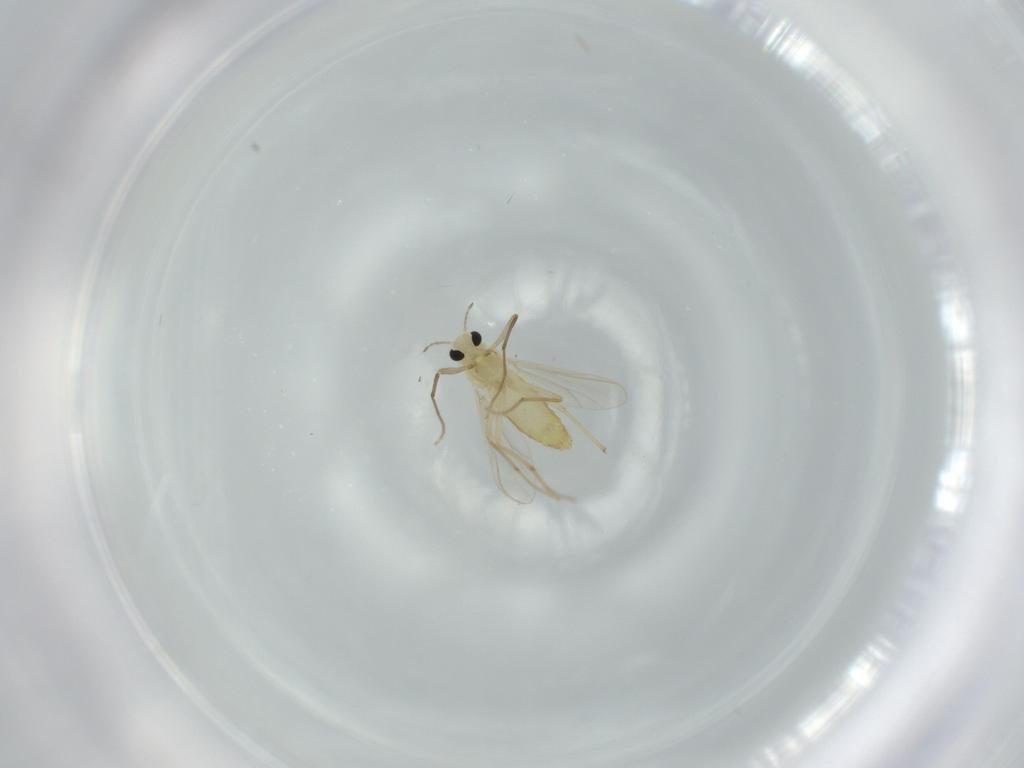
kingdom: Animalia
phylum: Arthropoda
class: Insecta
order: Diptera
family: Chironomidae
